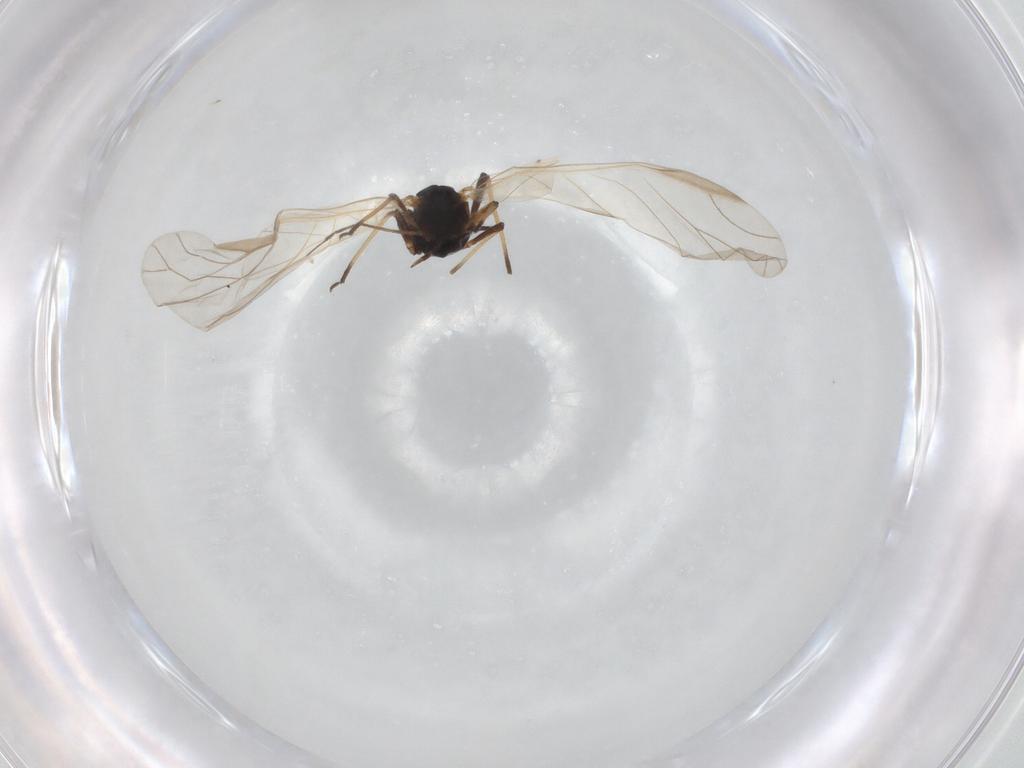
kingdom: Animalia
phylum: Arthropoda
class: Insecta
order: Hemiptera
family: Aphididae
